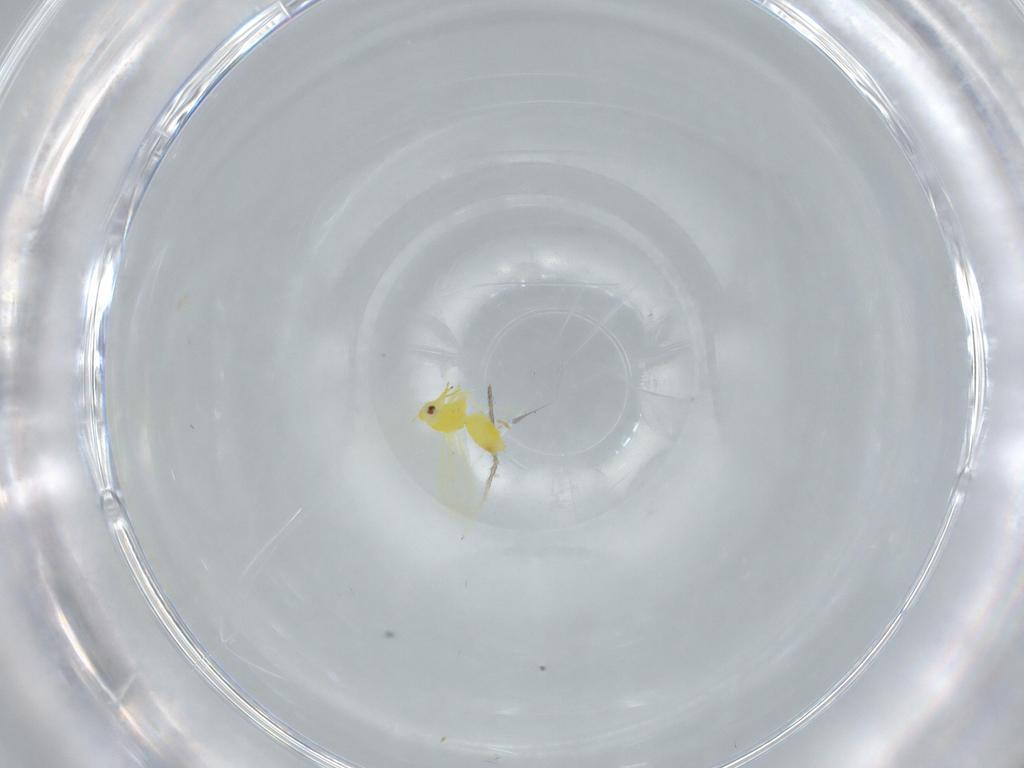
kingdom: Animalia
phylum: Arthropoda
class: Insecta
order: Hemiptera
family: Aleyrodidae
